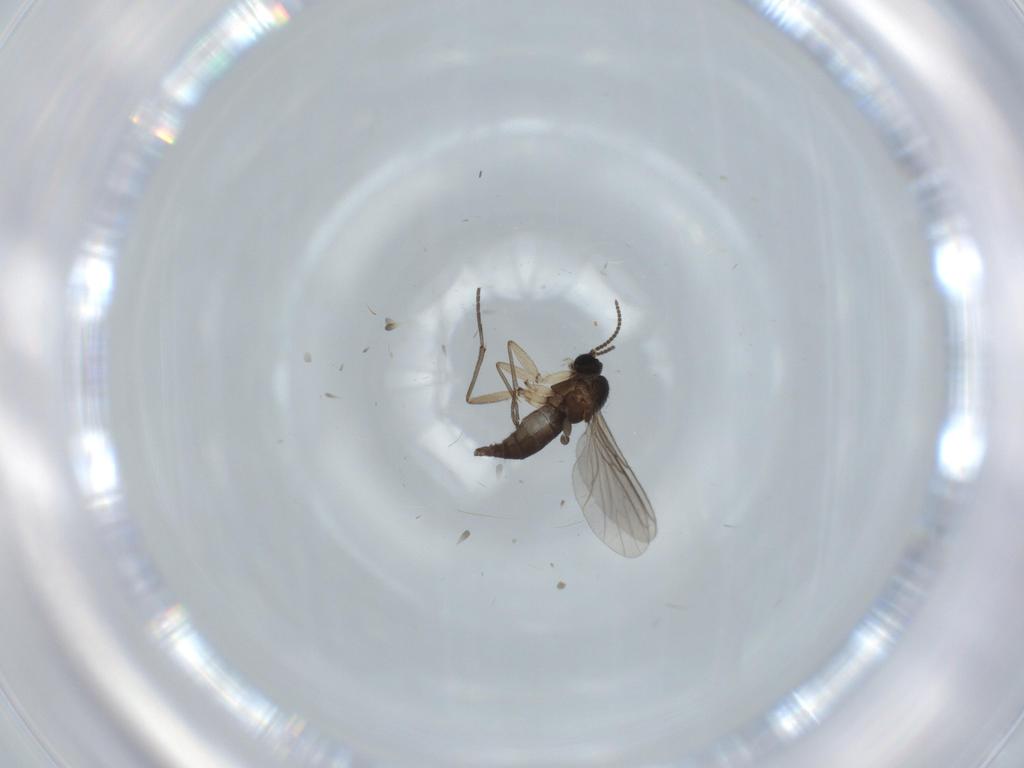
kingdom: Animalia
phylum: Arthropoda
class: Insecta
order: Diptera
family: Sciaridae
